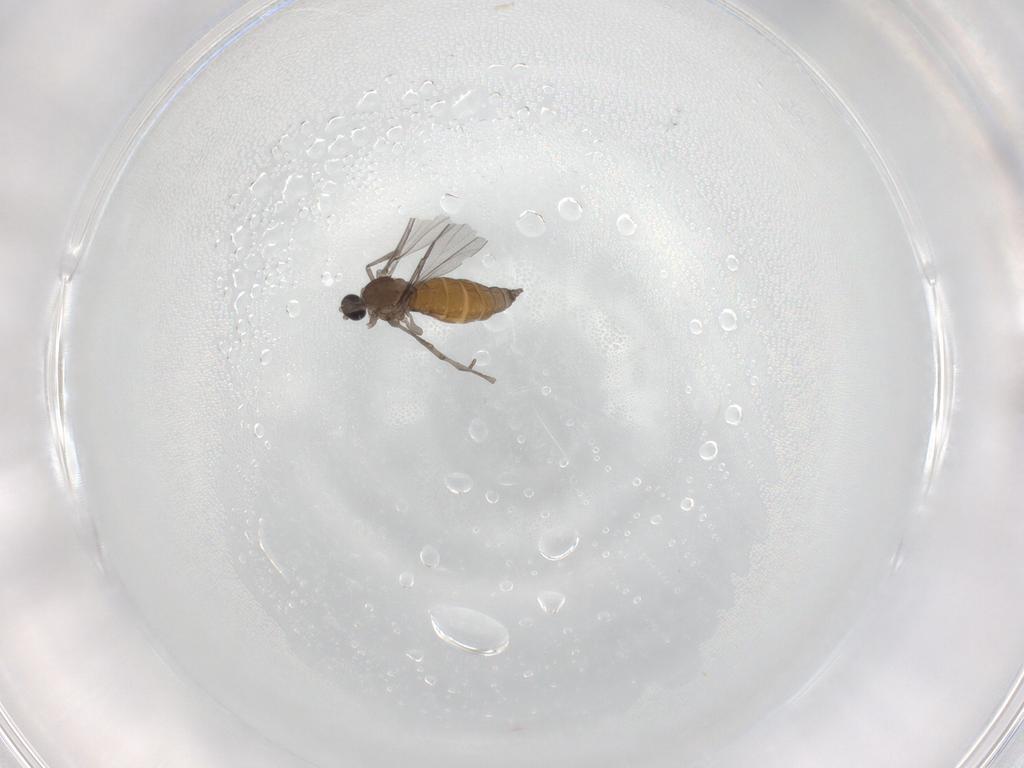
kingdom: Animalia
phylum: Arthropoda
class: Insecta
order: Diptera
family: Cecidomyiidae
